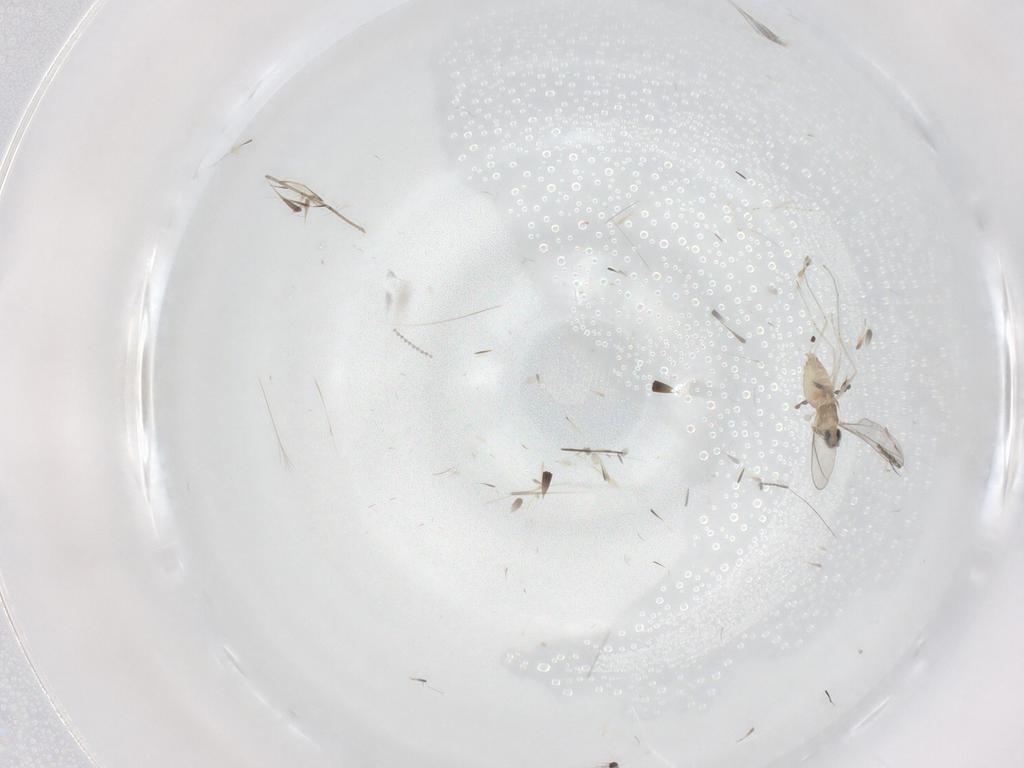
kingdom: Animalia
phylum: Arthropoda
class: Insecta
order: Diptera
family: Cecidomyiidae
